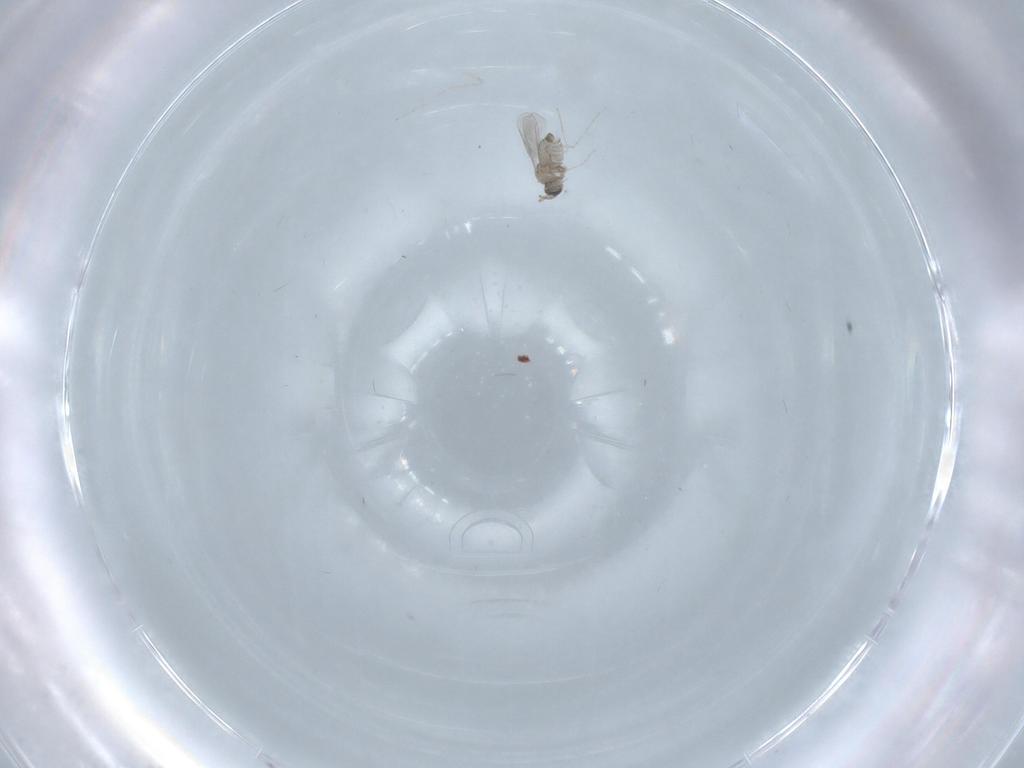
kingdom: Animalia
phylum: Arthropoda
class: Insecta
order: Diptera
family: Cecidomyiidae
